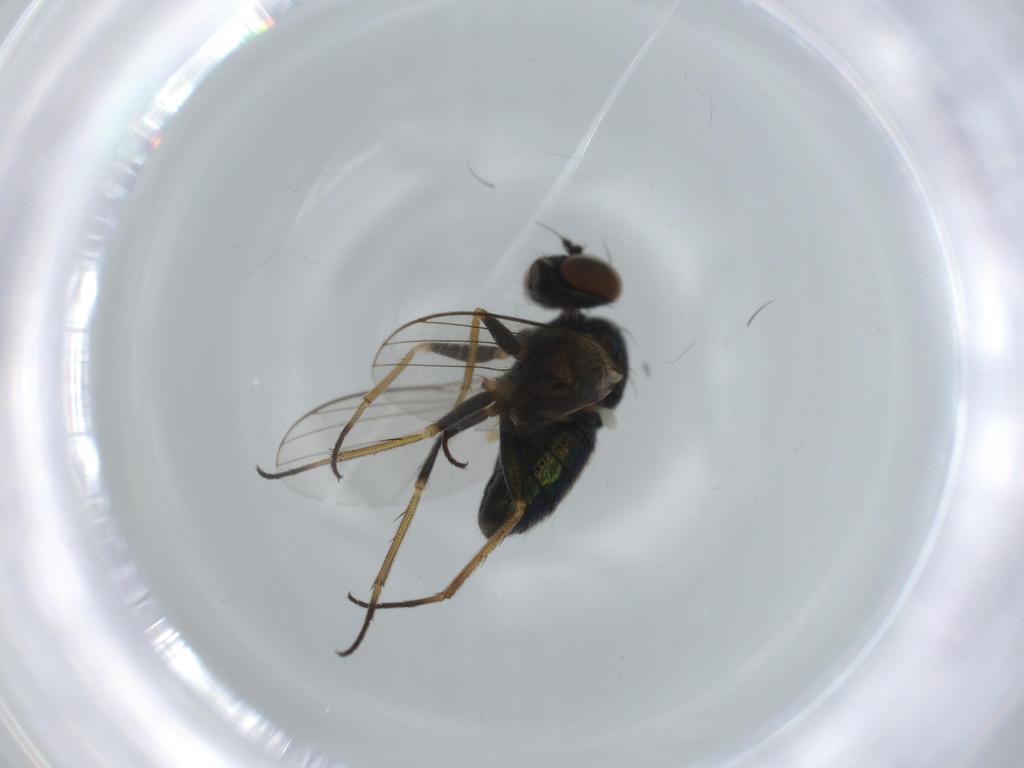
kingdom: Animalia
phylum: Arthropoda
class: Insecta
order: Diptera
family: Dolichopodidae
